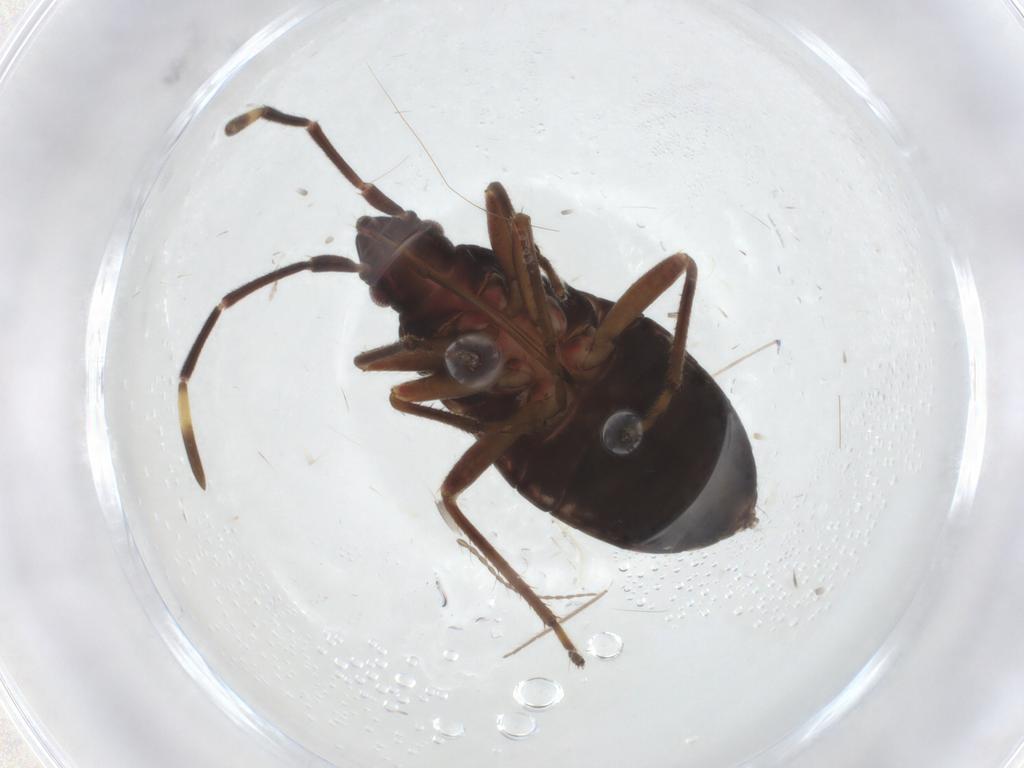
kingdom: Animalia
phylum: Arthropoda
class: Insecta
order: Hemiptera
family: Rhyparochromidae
